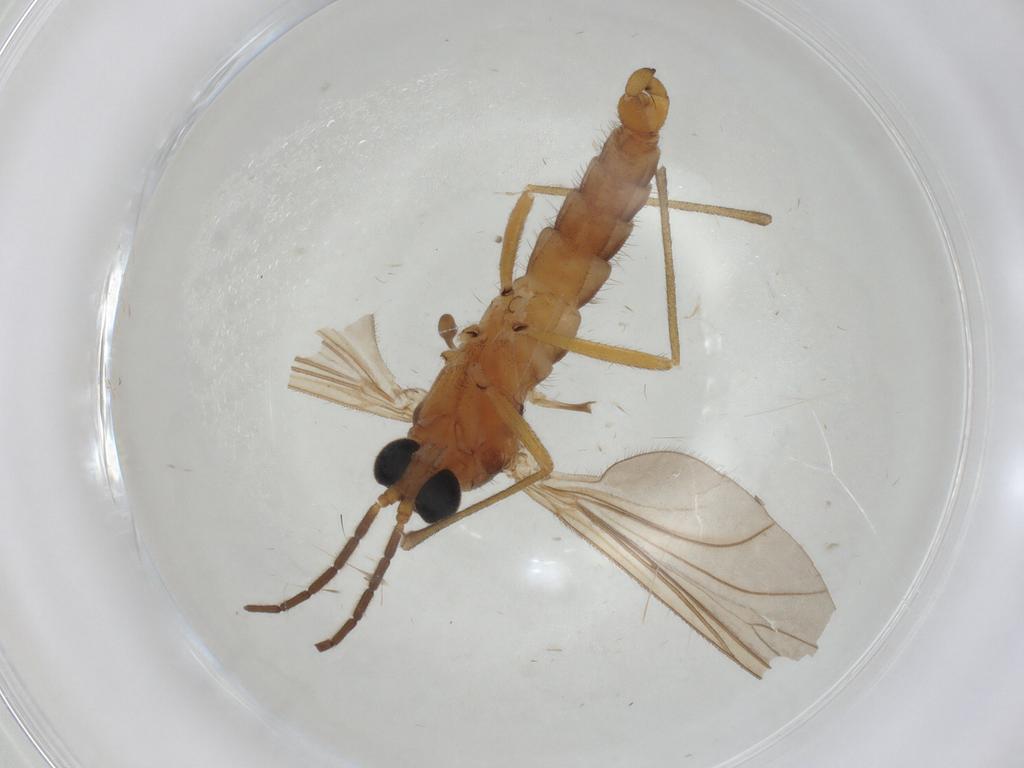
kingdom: Animalia
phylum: Arthropoda
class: Insecta
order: Diptera
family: Sciaridae
